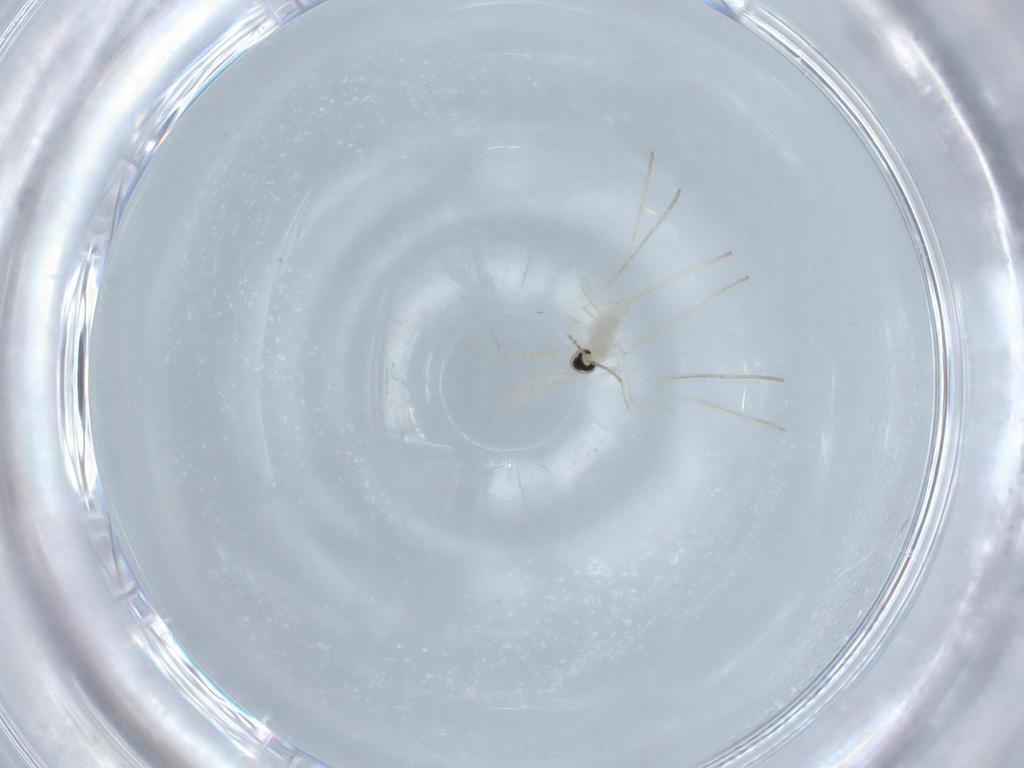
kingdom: Animalia
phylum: Arthropoda
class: Insecta
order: Diptera
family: Cecidomyiidae
